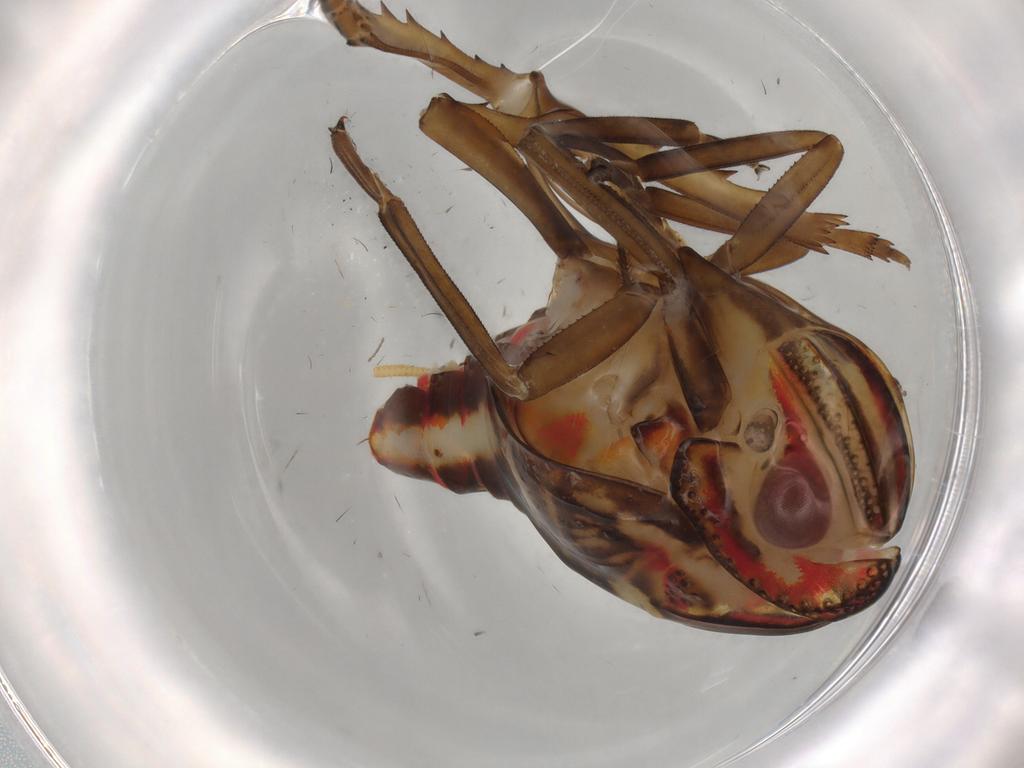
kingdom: Animalia
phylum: Arthropoda
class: Insecta
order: Hemiptera
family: Nogodinidae
